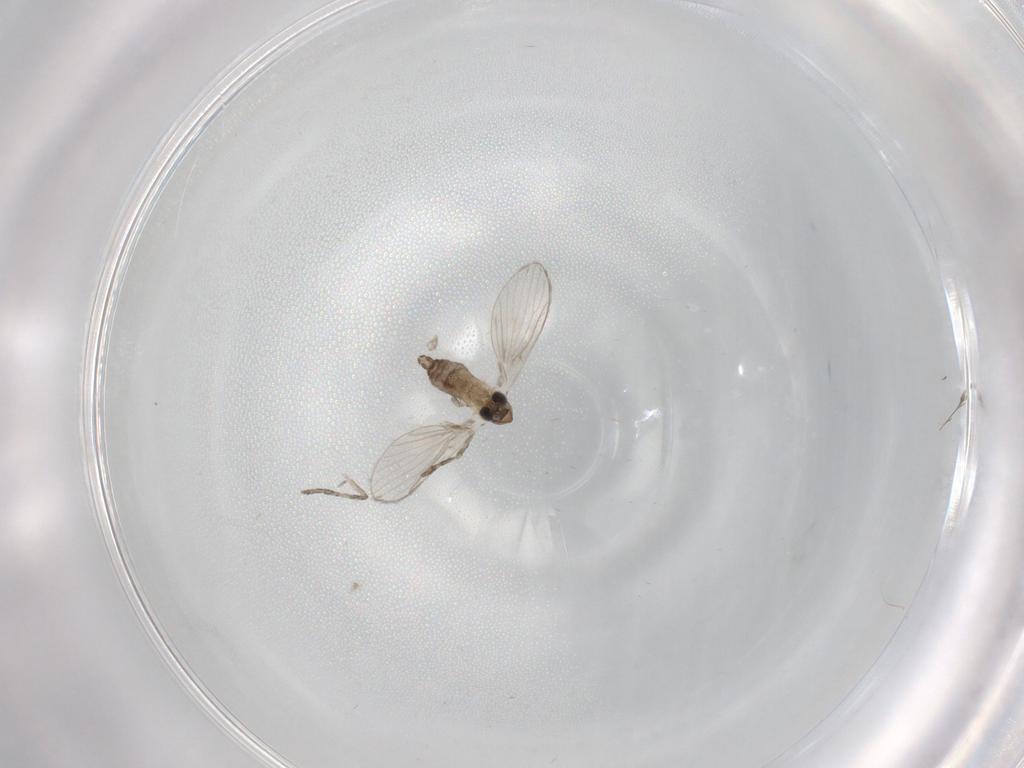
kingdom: Animalia
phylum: Arthropoda
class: Insecta
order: Diptera
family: Psychodidae
